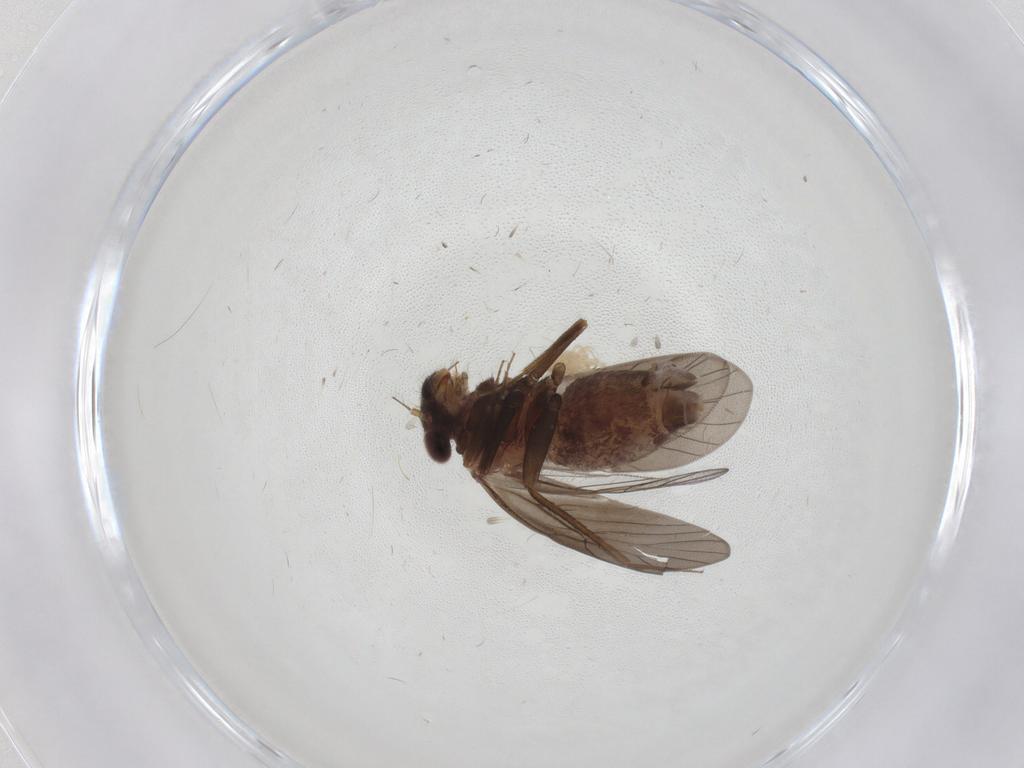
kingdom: Animalia
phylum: Arthropoda
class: Insecta
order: Psocodea
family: Lepidopsocidae
